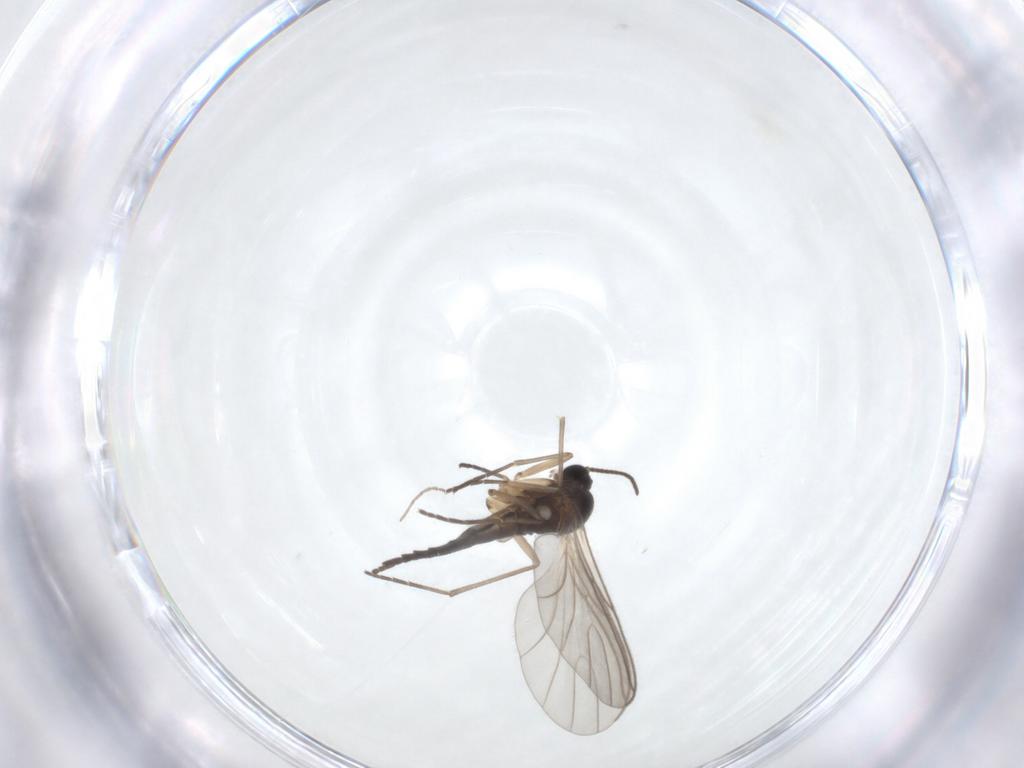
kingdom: Animalia
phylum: Arthropoda
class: Insecta
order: Diptera
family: Sciaridae
